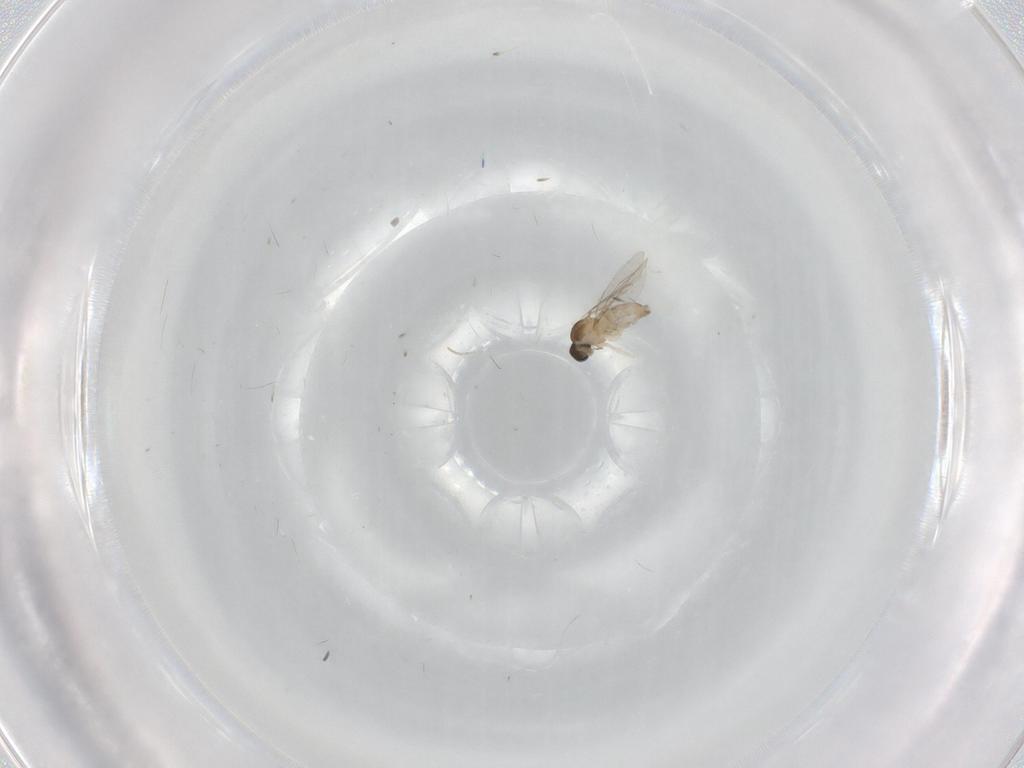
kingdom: Animalia
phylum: Arthropoda
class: Insecta
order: Diptera
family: Cecidomyiidae
